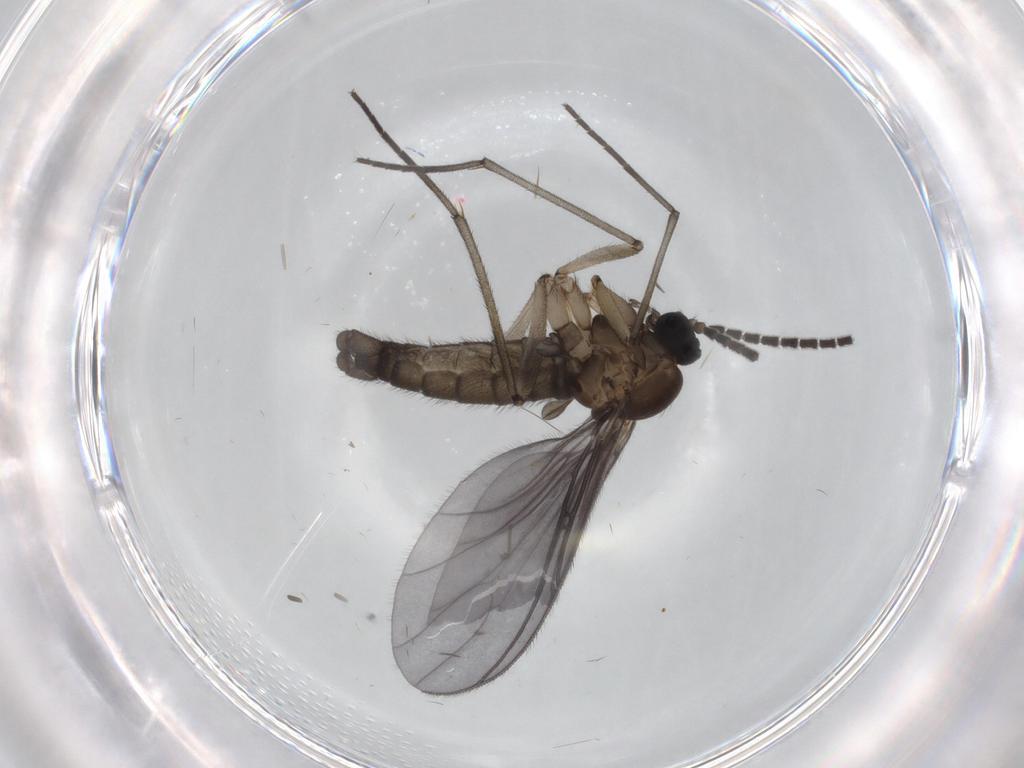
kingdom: Animalia
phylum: Arthropoda
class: Insecta
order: Diptera
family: Sciaridae
